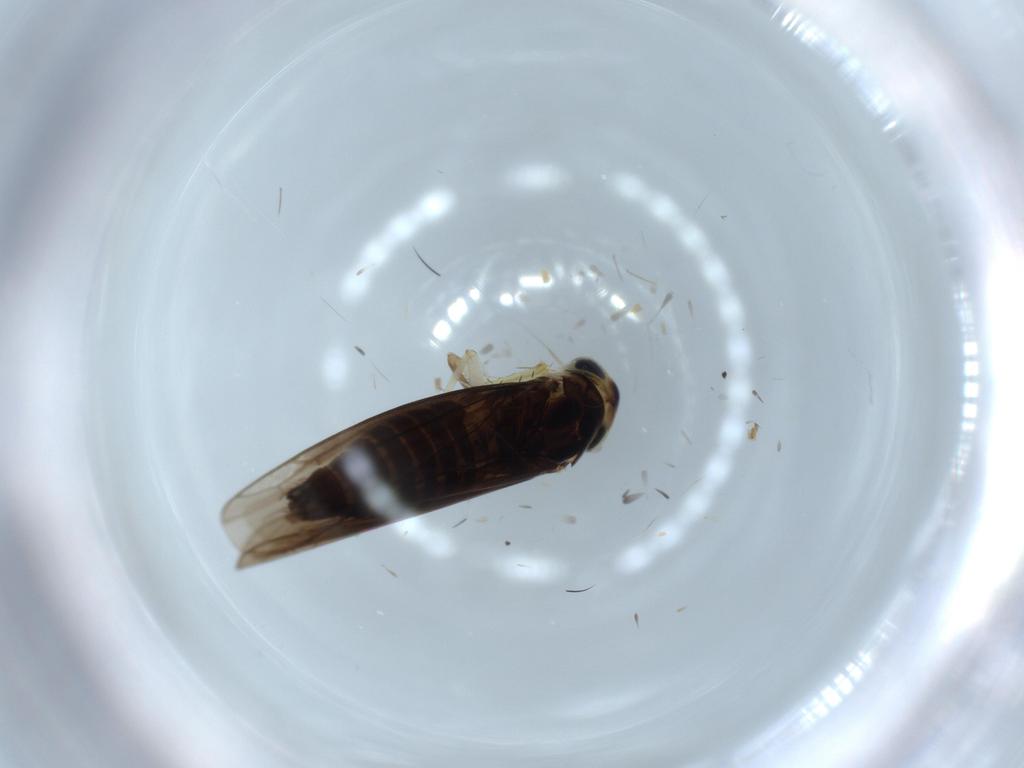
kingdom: Animalia
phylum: Arthropoda
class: Insecta
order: Hemiptera
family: Cicadellidae
